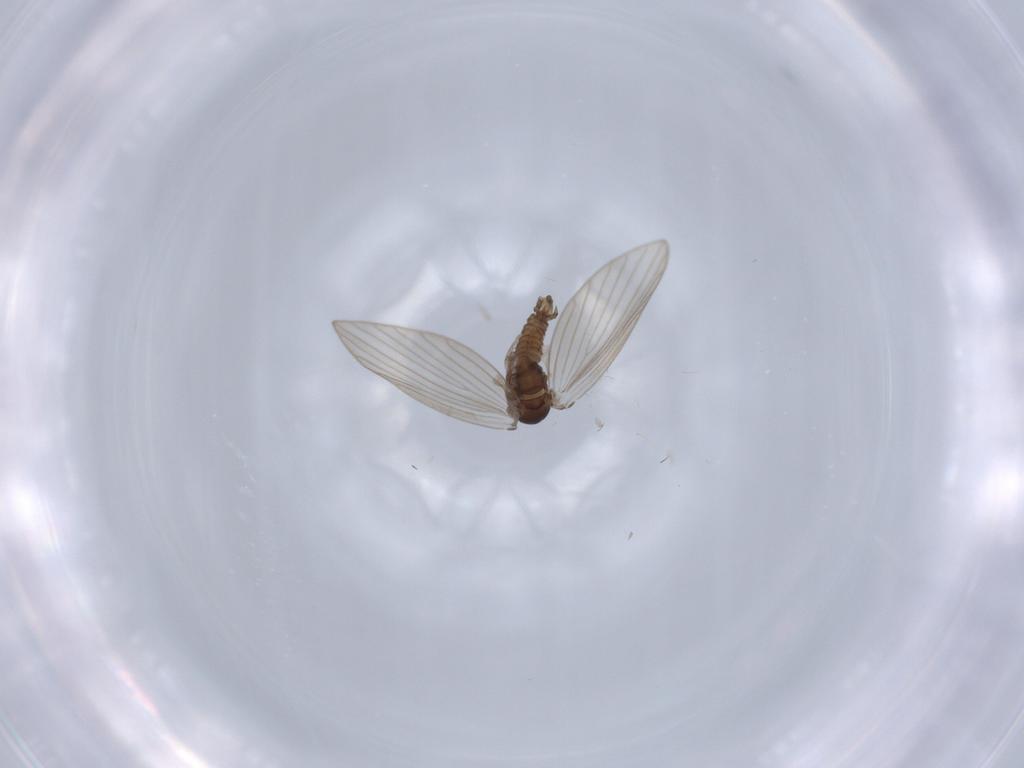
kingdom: Animalia
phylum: Arthropoda
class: Insecta
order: Diptera
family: Psychodidae
